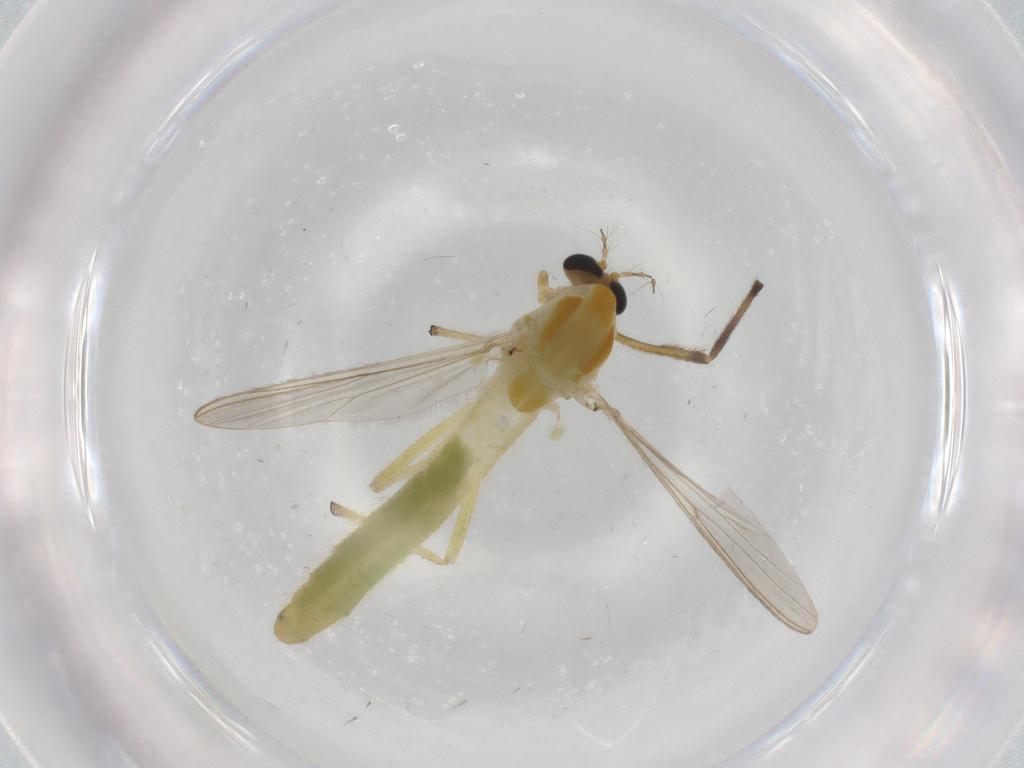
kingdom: Animalia
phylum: Arthropoda
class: Insecta
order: Diptera
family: Chironomidae
